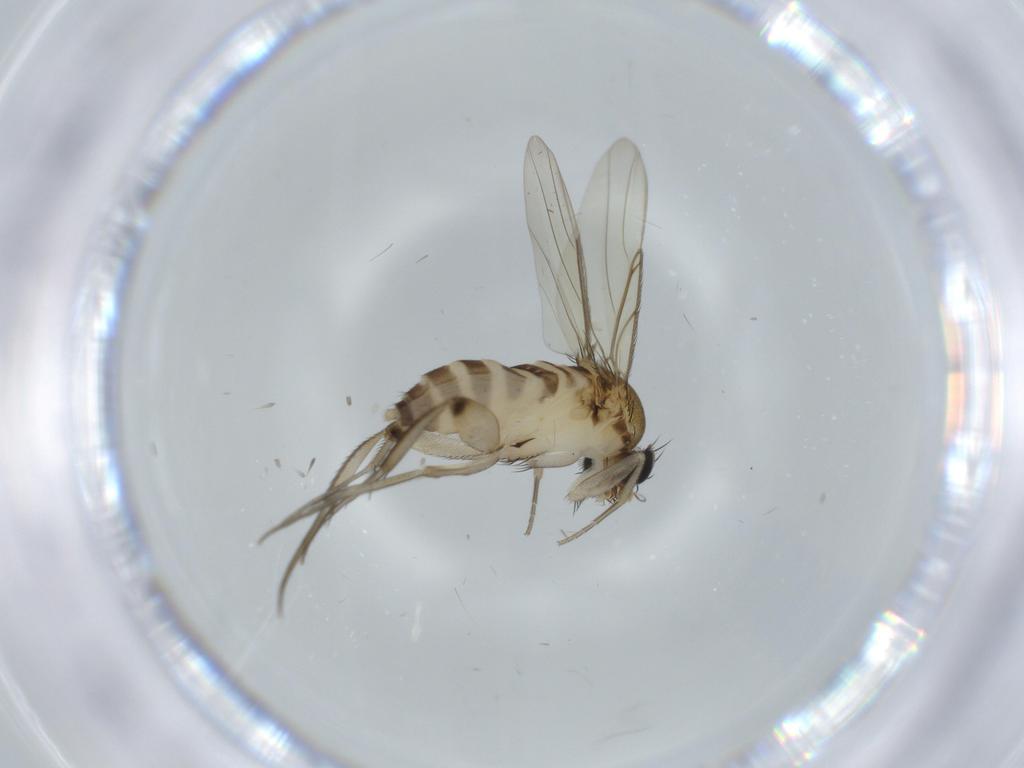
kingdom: Animalia
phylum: Arthropoda
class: Insecta
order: Diptera
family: Phoridae
